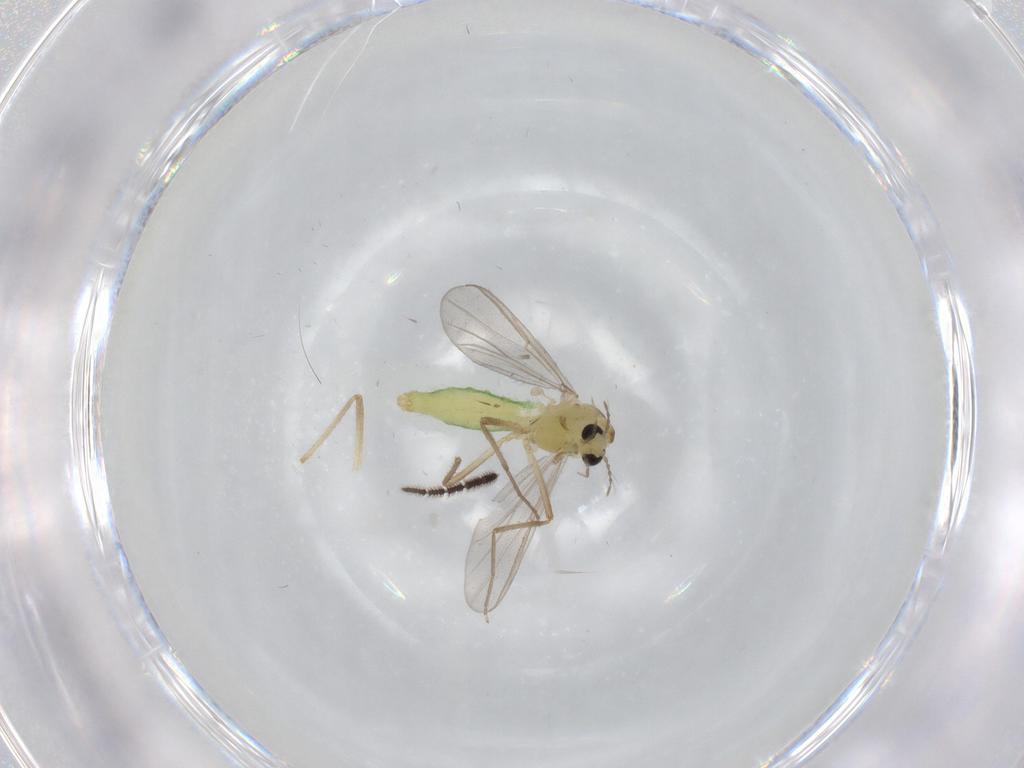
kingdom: Animalia
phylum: Arthropoda
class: Insecta
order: Diptera
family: Chironomidae
